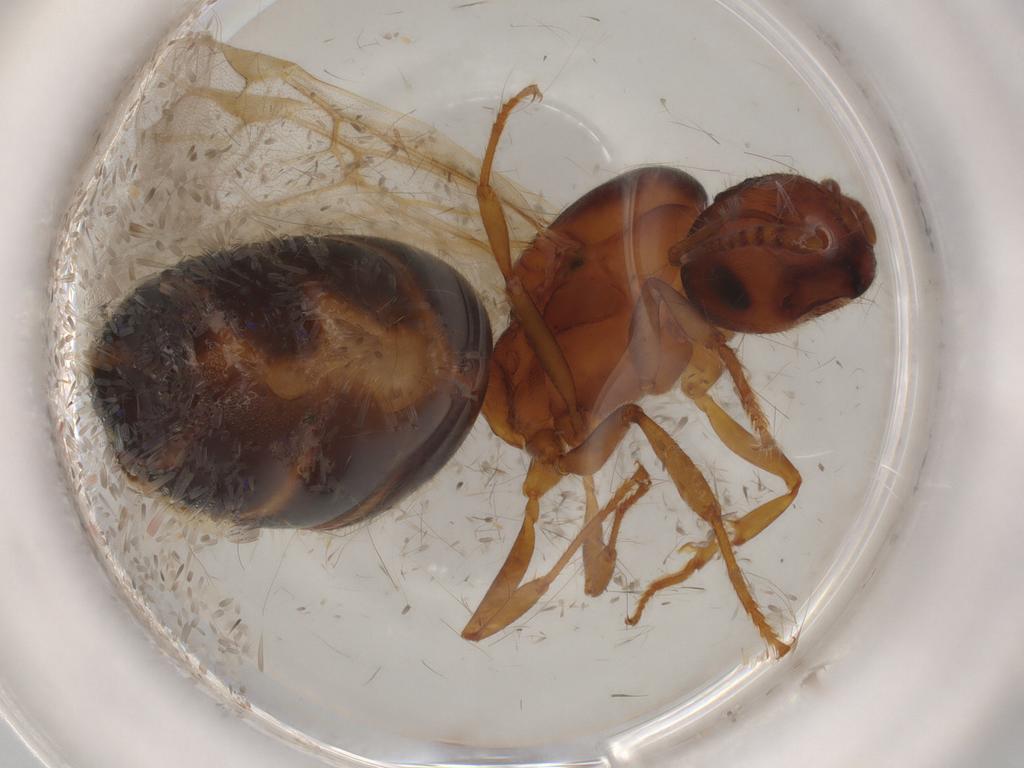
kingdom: Animalia
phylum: Arthropoda
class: Insecta
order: Hymenoptera
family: Formicidae
